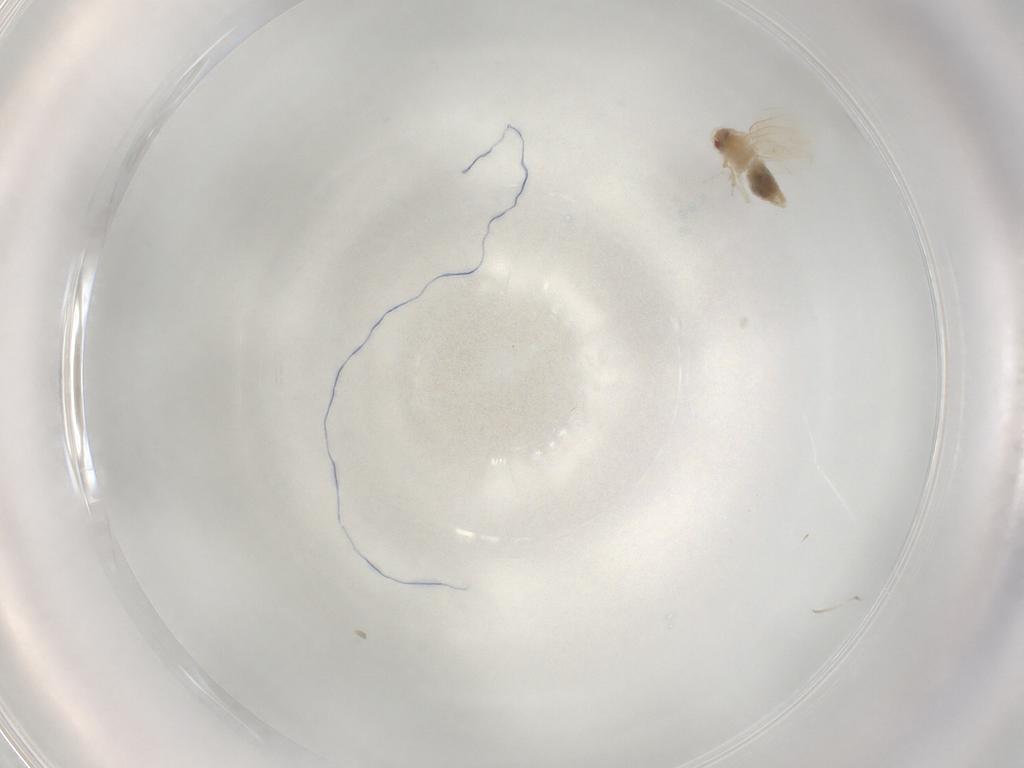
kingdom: Animalia
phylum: Arthropoda
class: Insecta
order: Hemiptera
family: Aleyrodidae
